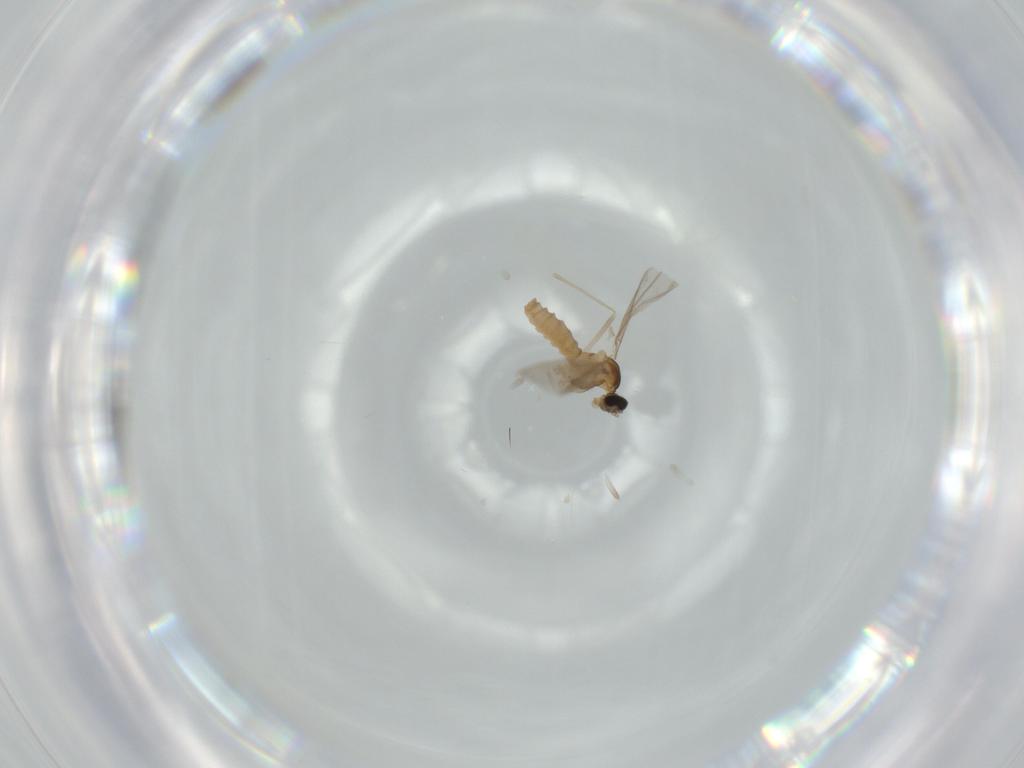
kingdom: Animalia
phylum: Arthropoda
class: Insecta
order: Diptera
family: Cecidomyiidae
